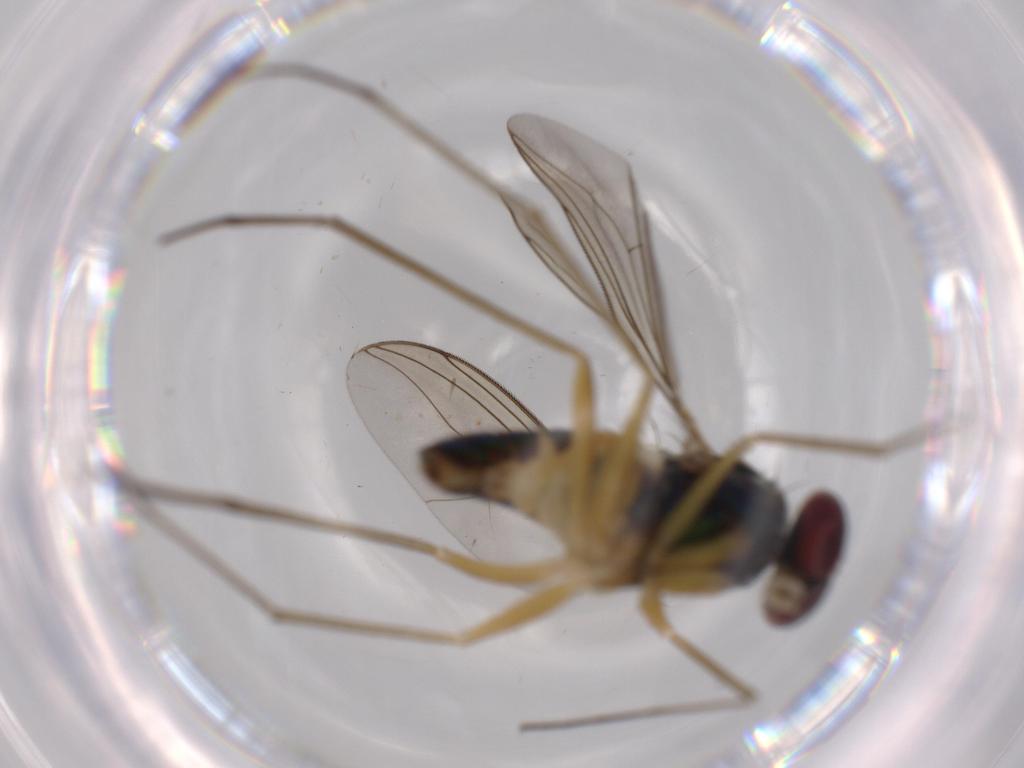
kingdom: Animalia
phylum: Arthropoda
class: Insecta
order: Diptera
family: Dolichopodidae
